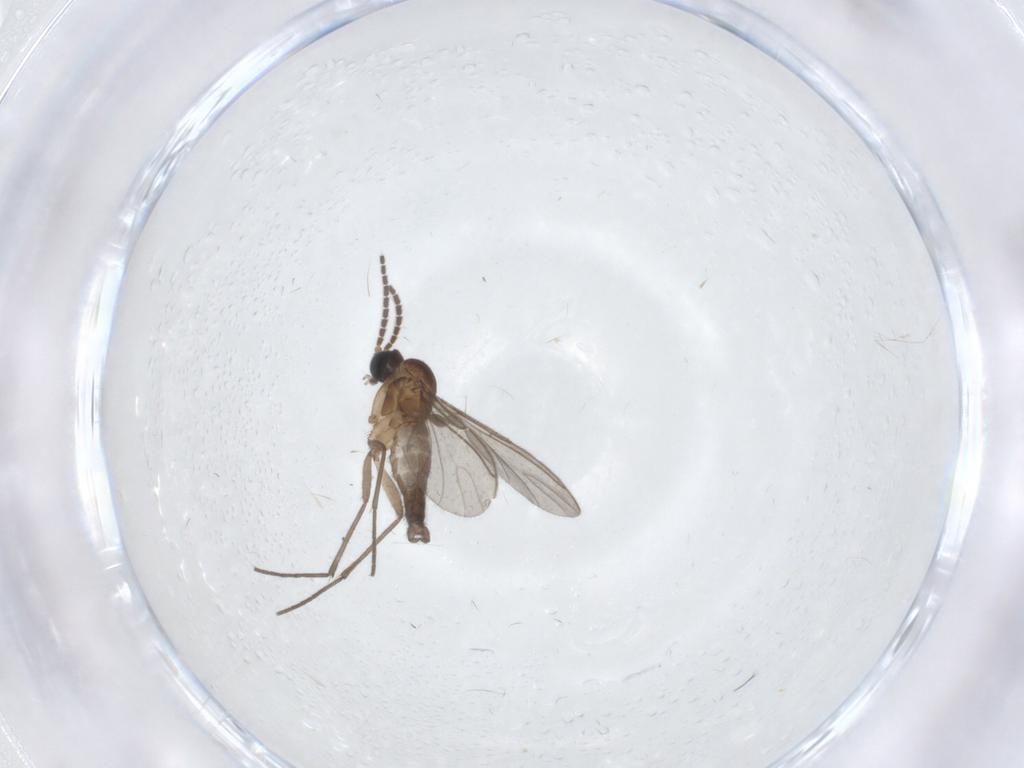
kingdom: Animalia
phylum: Arthropoda
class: Insecta
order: Diptera
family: Sciaridae
